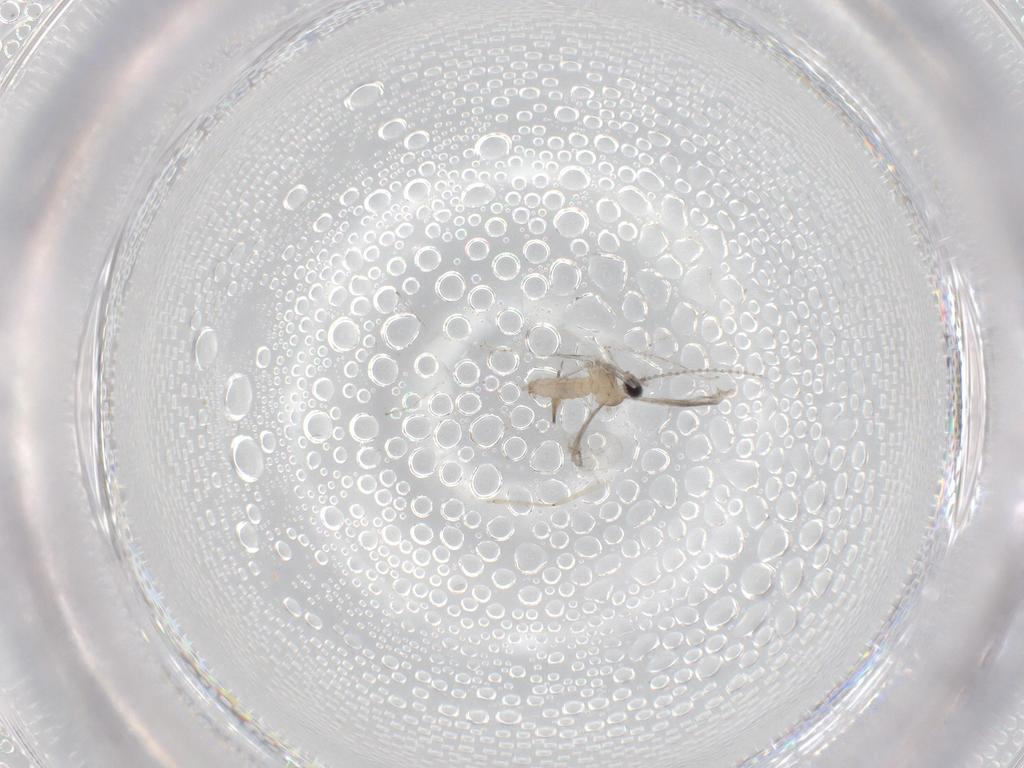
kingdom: Animalia
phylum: Arthropoda
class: Insecta
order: Diptera
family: Cecidomyiidae
